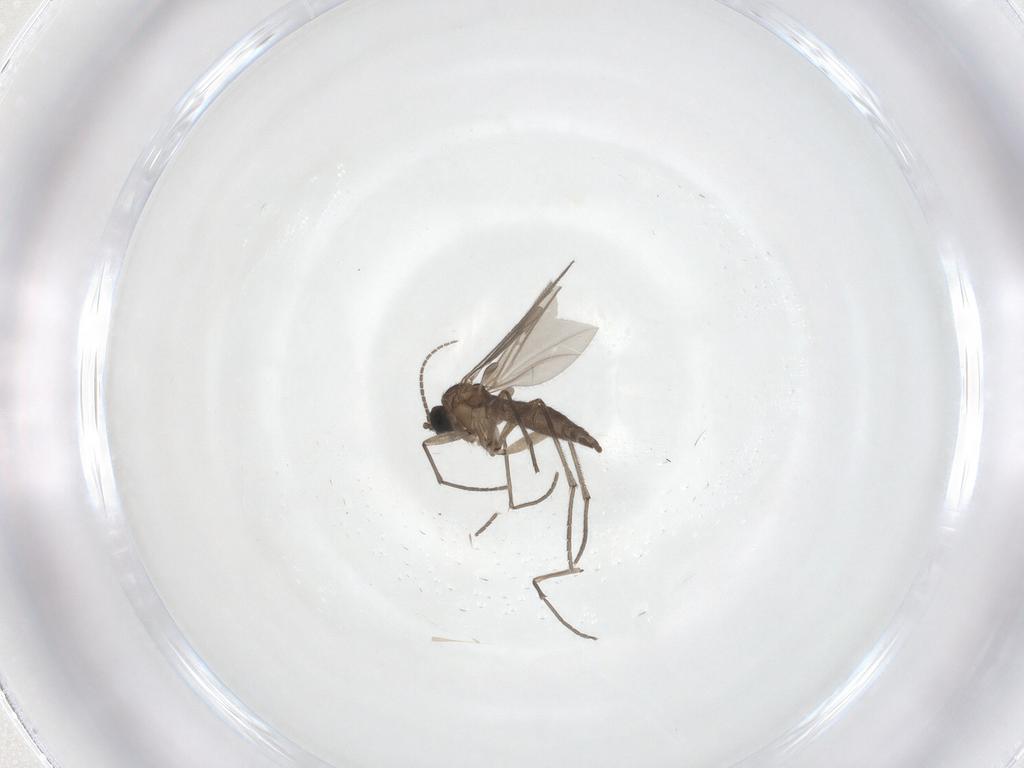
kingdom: Animalia
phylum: Arthropoda
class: Insecta
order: Diptera
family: Sciaridae
